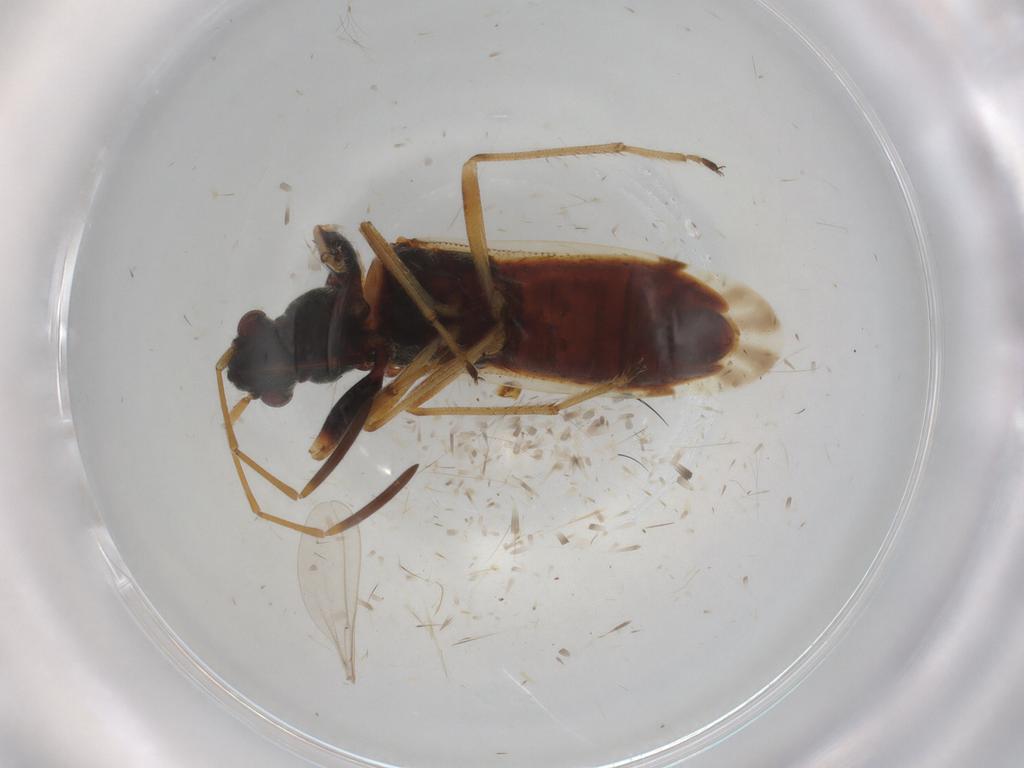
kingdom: Animalia
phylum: Arthropoda
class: Insecta
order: Hemiptera
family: Rhyparochromidae
